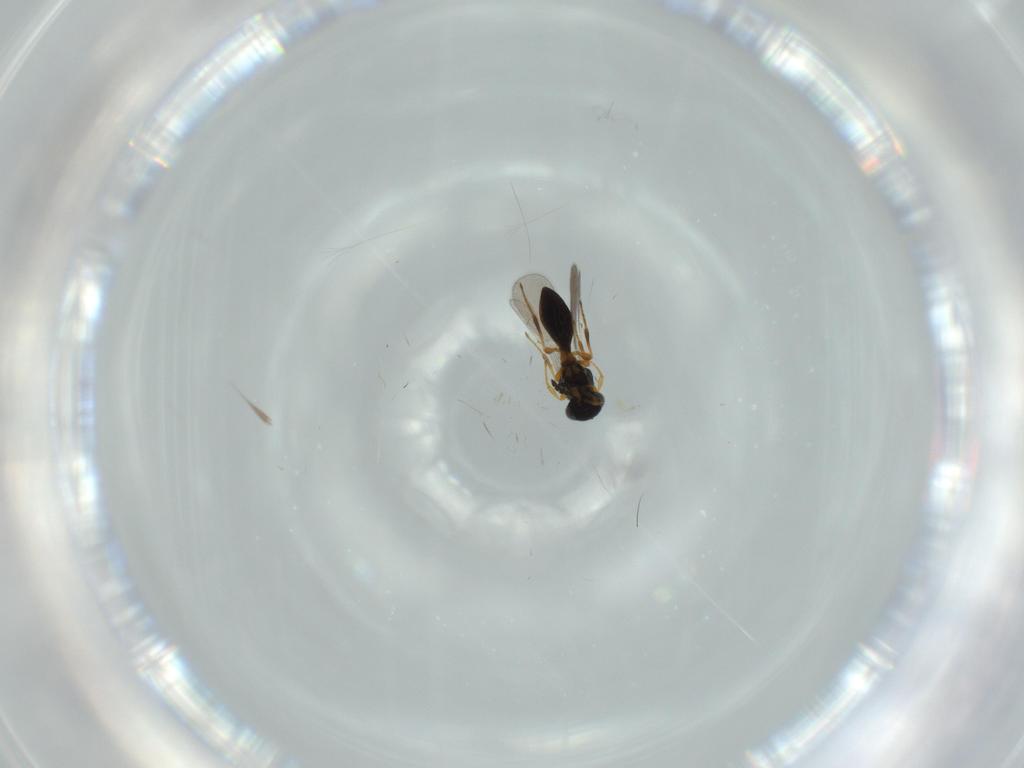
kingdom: Animalia
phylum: Arthropoda
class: Insecta
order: Hymenoptera
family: Platygastridae
